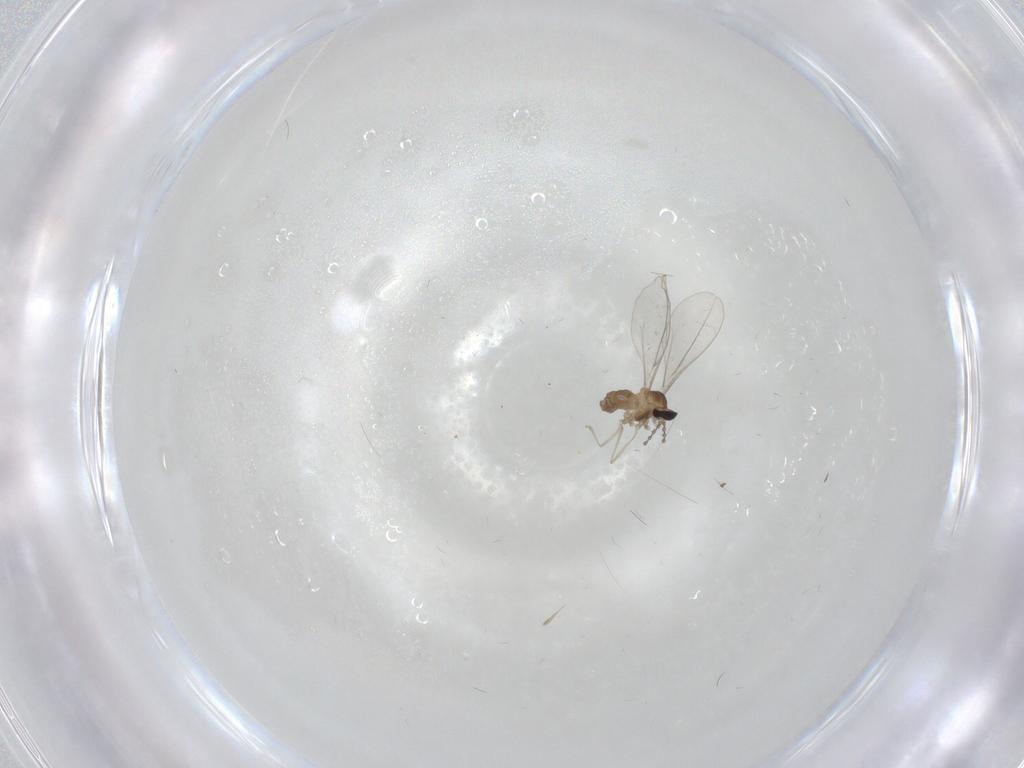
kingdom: Animalia
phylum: Arthropoda
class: Insecta
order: Diptera
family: Cecidomyiidae
